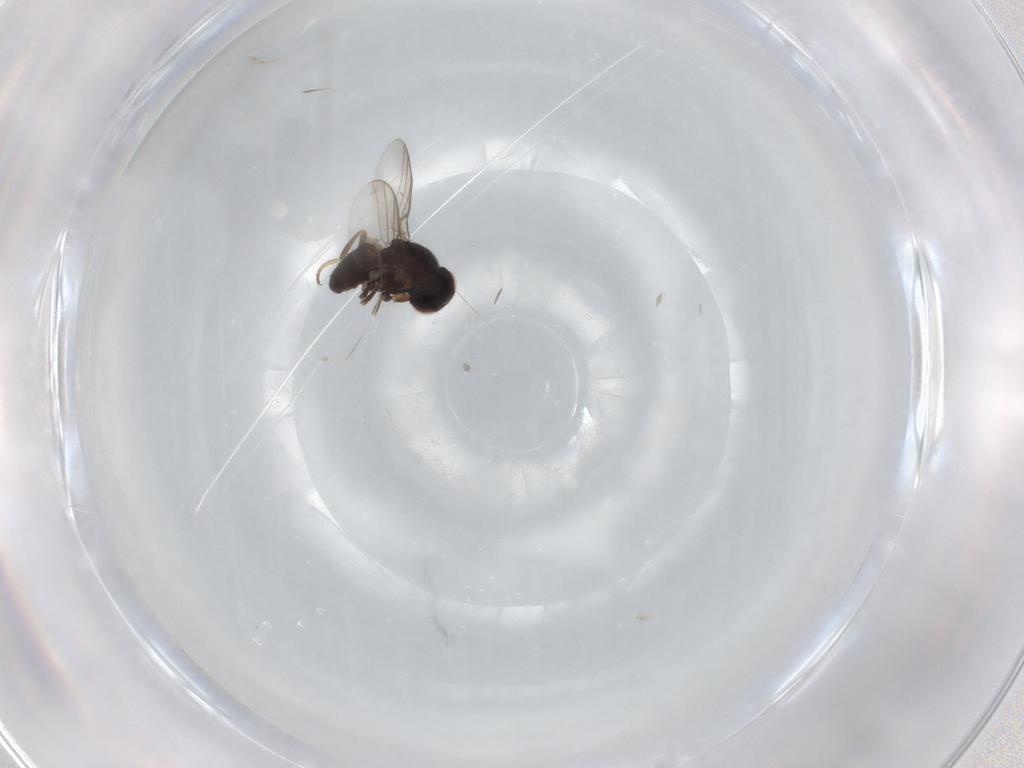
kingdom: Animalia
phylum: Arthropoda
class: Insecta
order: Diptera
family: Chloropidae
